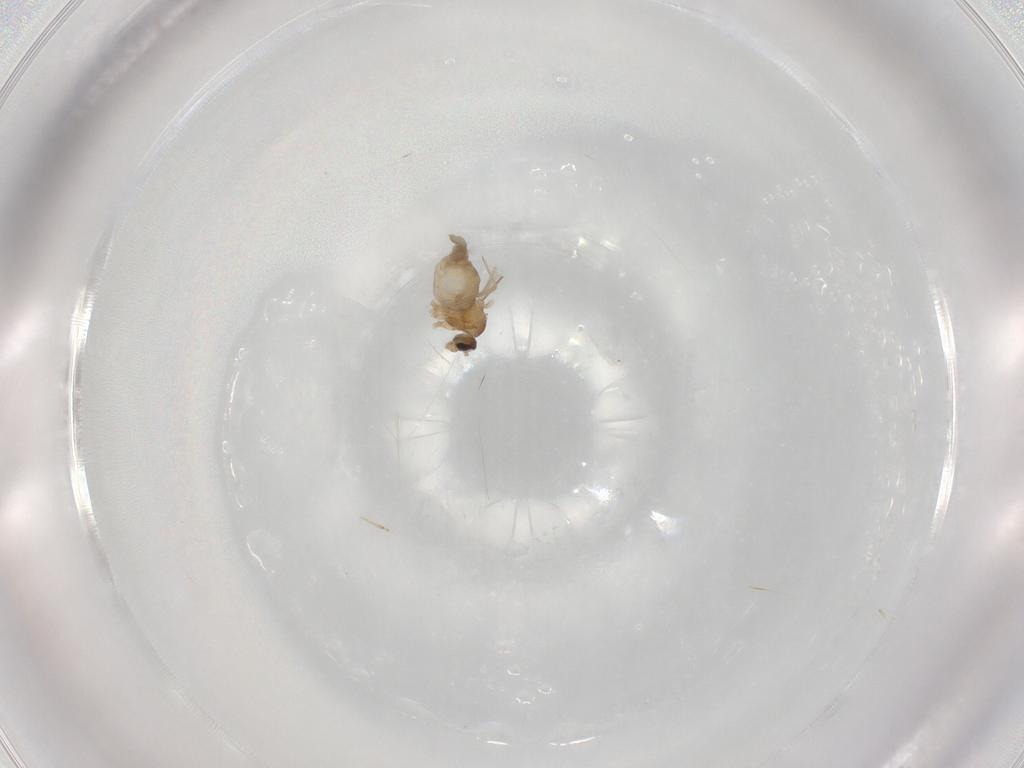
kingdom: Animalia
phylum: Arthropoda
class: Insecta
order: Diptera
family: Cecidomyiidae
